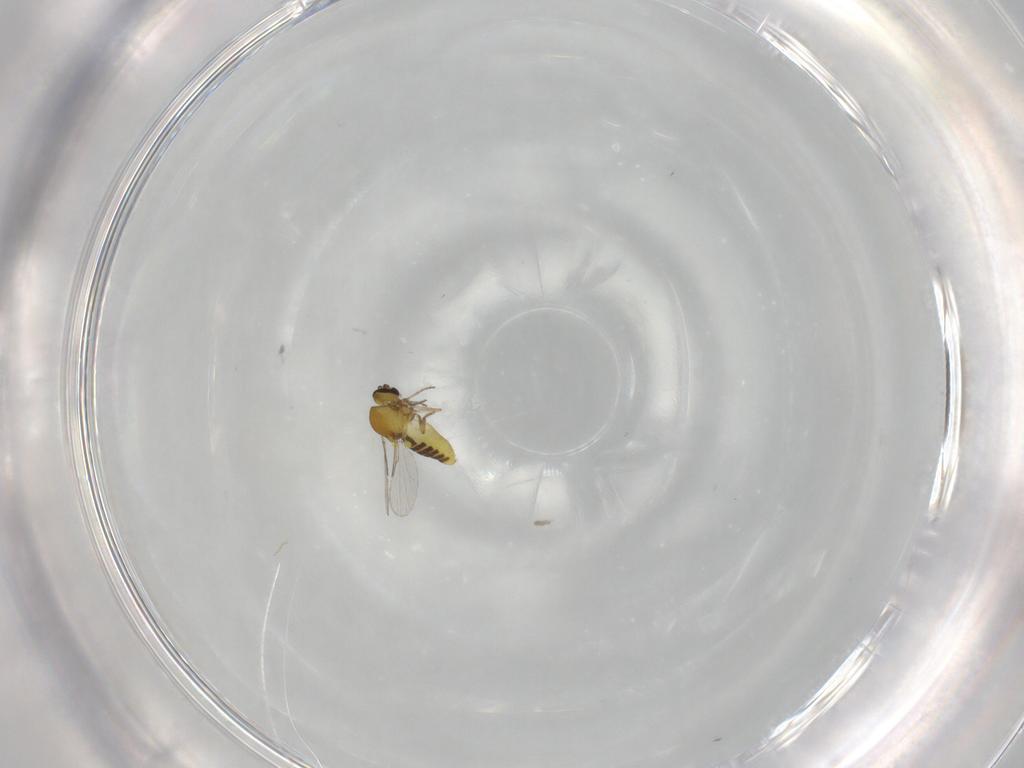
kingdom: Animalia
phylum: Arthropoda
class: Insecta
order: Diptera
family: Ceratopogonidae
